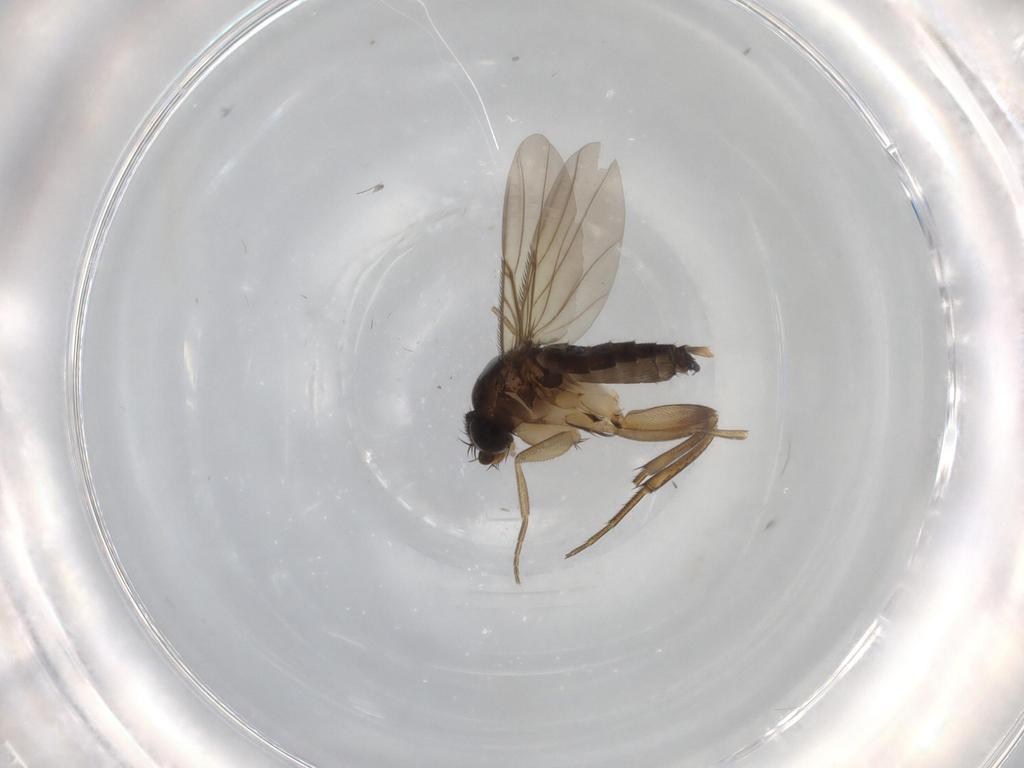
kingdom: Animalia
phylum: Arthropoda
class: Insecta
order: Diptera
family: Phoridae
